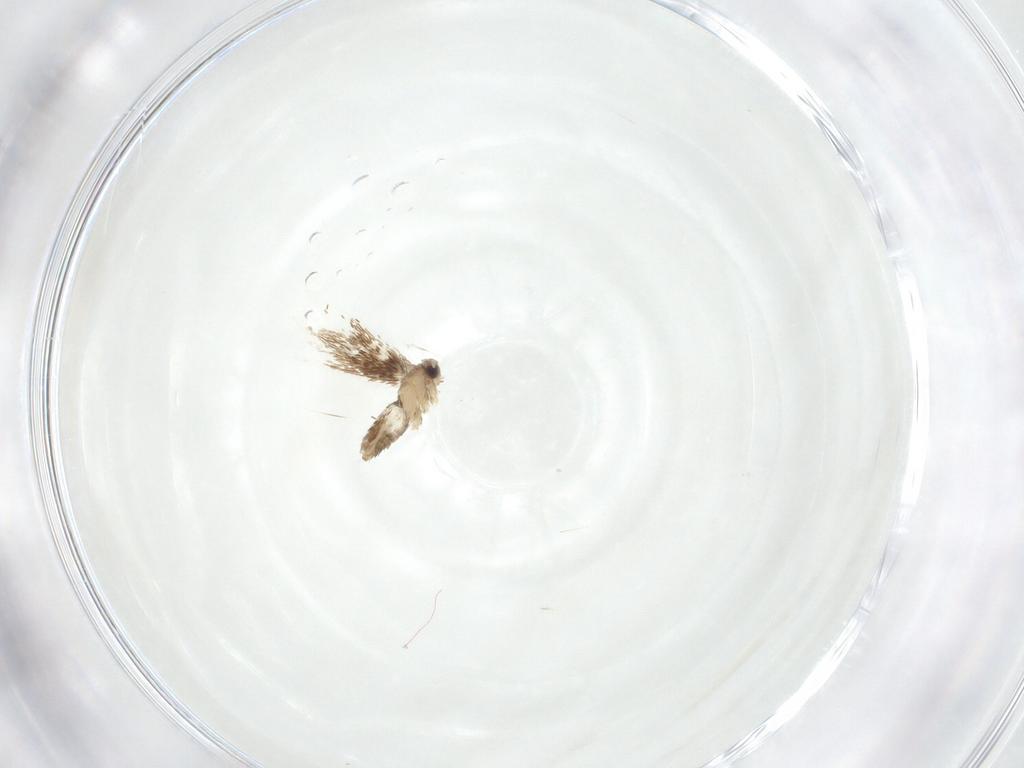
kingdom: Animalia
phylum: Arthropoda
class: Insecta
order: Lepidoptera
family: Nepticulidae
